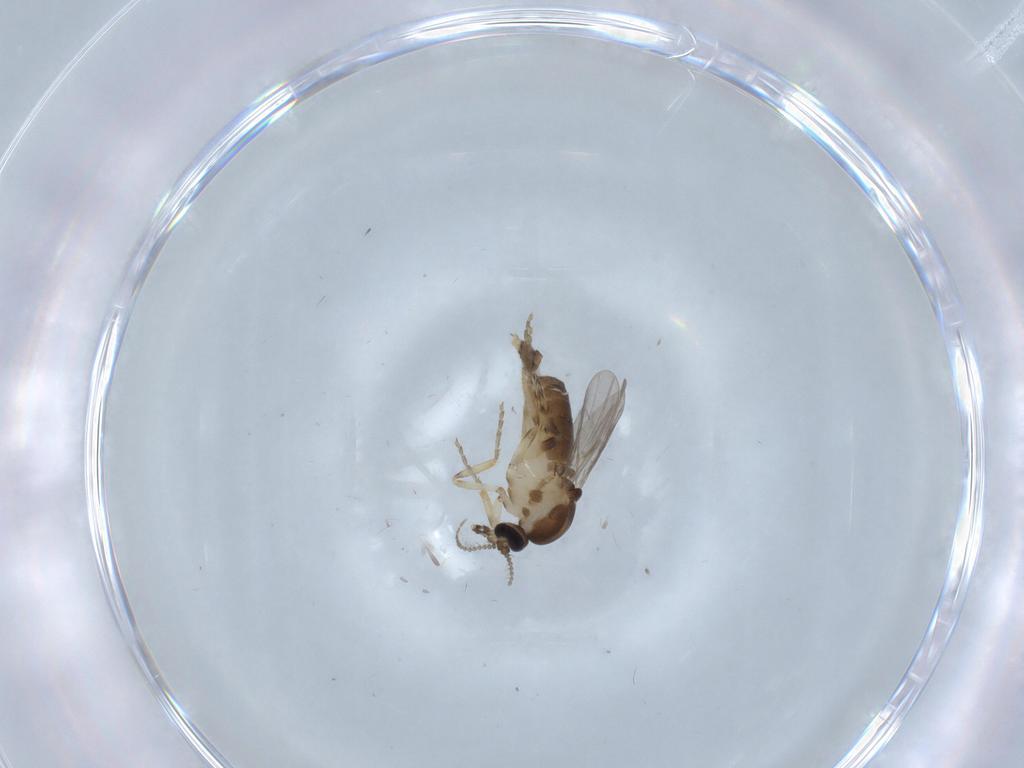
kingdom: Animalia
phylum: Arthropoda
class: Insecta
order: Diptera
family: Ceratopogonidae
